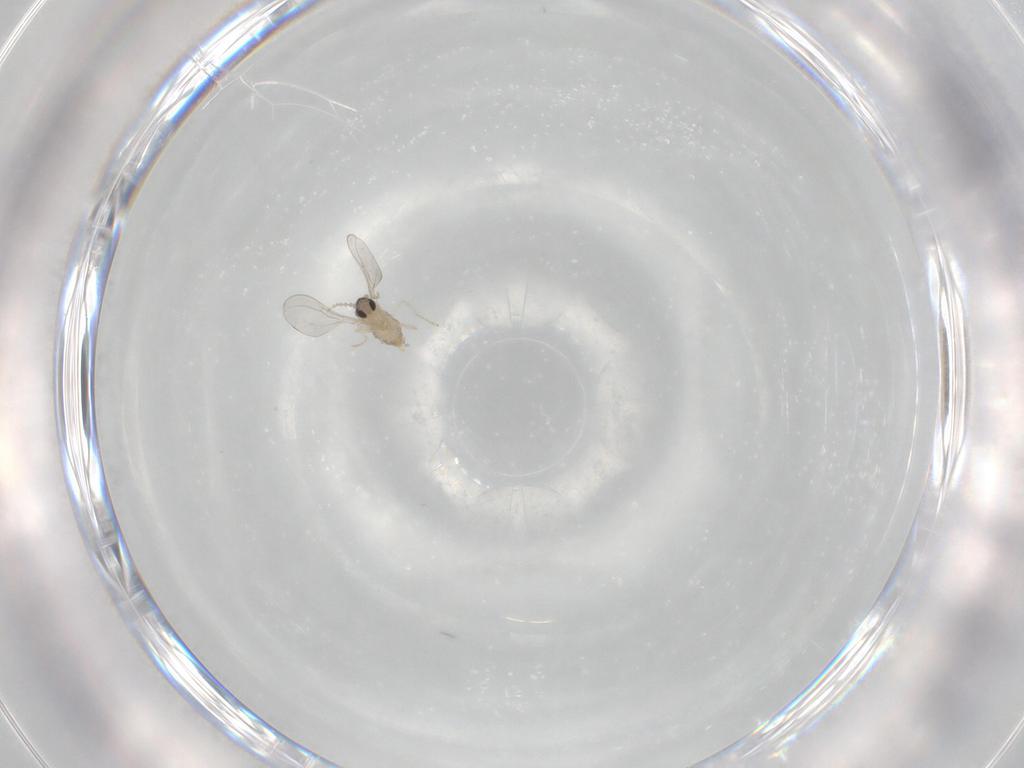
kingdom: Animalia
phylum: Arthropoda
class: Insecta
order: Diptera
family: Cecidomyiidae
